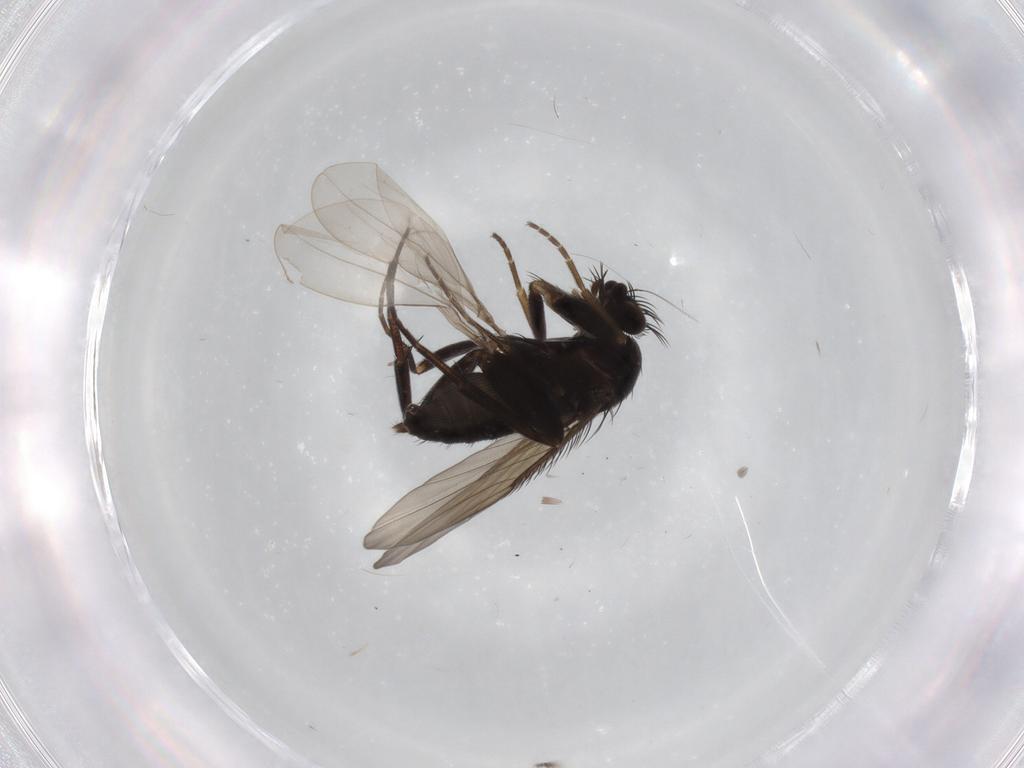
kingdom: Animalia
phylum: Arthropoda
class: Insecta
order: Diptera
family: Phoridae
